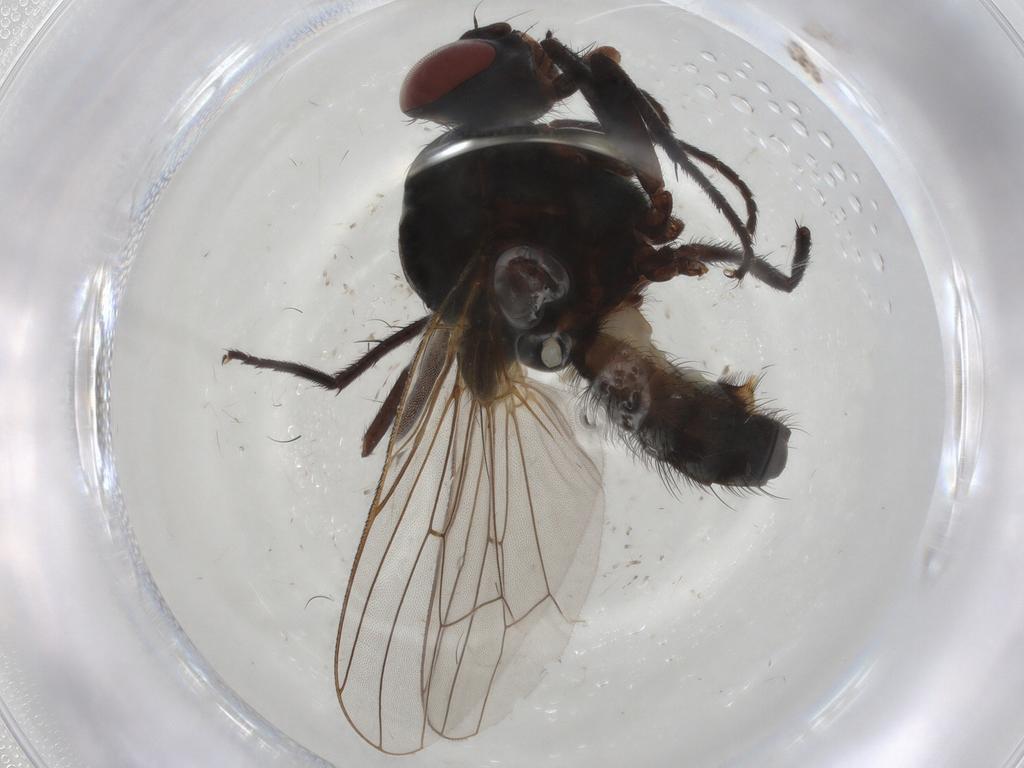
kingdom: Animalia
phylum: Arthropoda
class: Insecta
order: Diptera
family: Anthomyiidae
